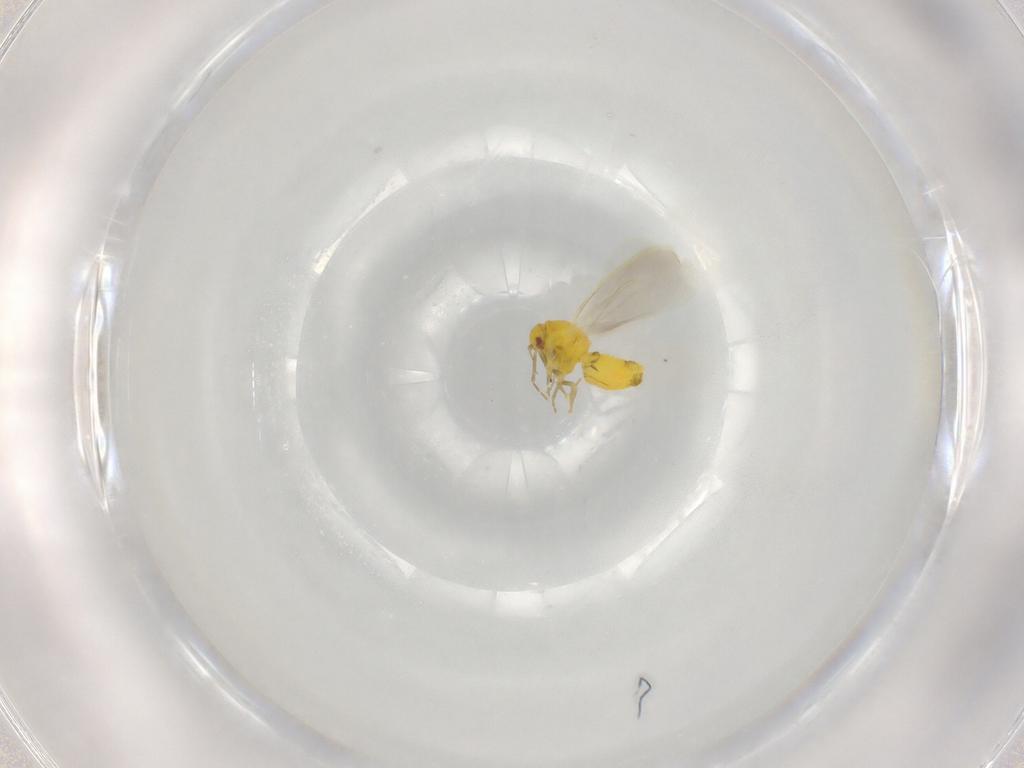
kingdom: Animalia
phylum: Arthropoda
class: Insecta
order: Hemiptera
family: Aleyrodidae
